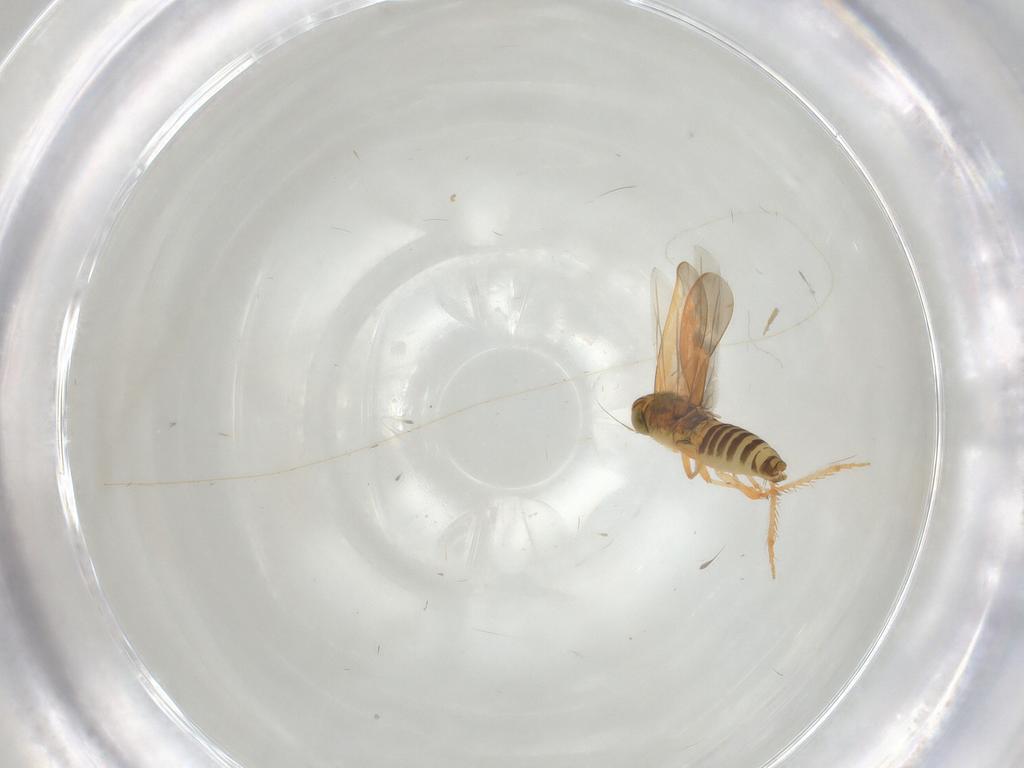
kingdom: Animalia
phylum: Arthropoda
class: Insecta
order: Hemiptera
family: Cicadellidae
